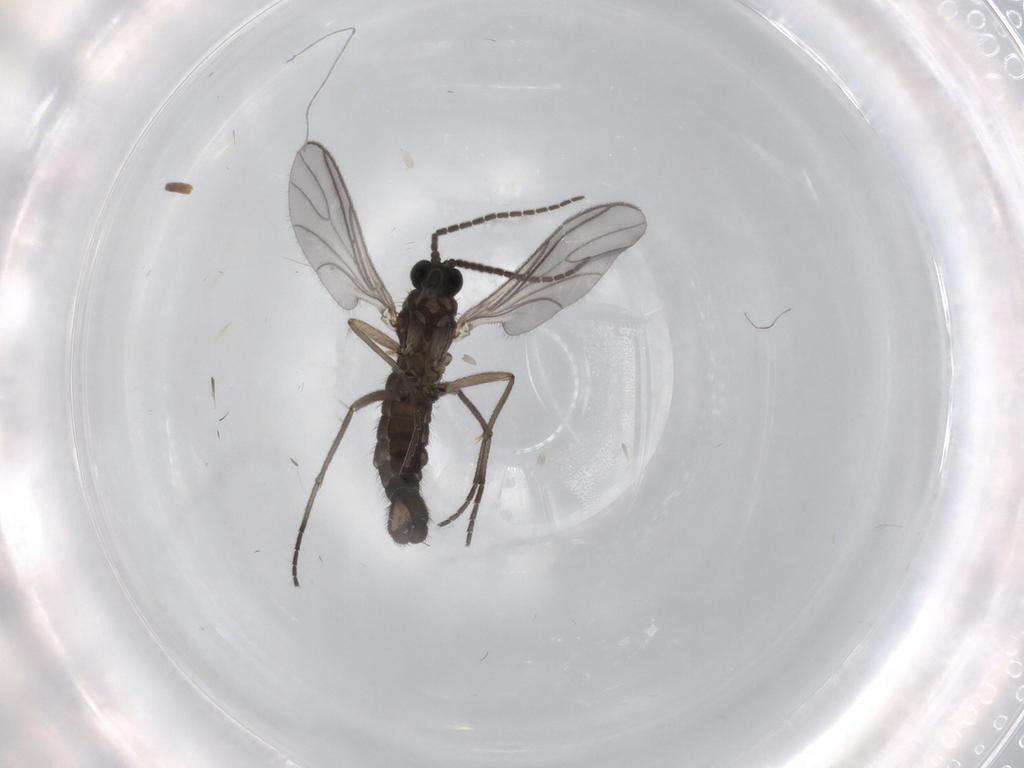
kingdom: Animalia
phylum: Arthropoda
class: Insecta
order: Diptera
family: Sciaridae
